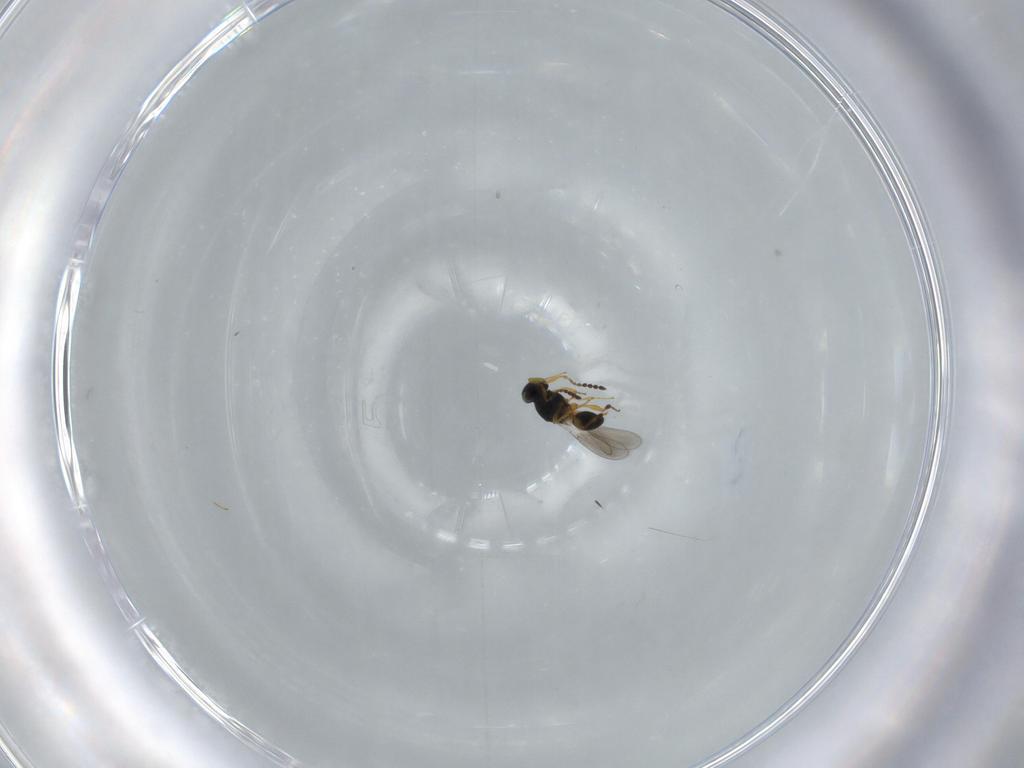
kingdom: Animalia
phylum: Arthropoda
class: Insecta
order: Hymenoptera
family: Platygastridae
